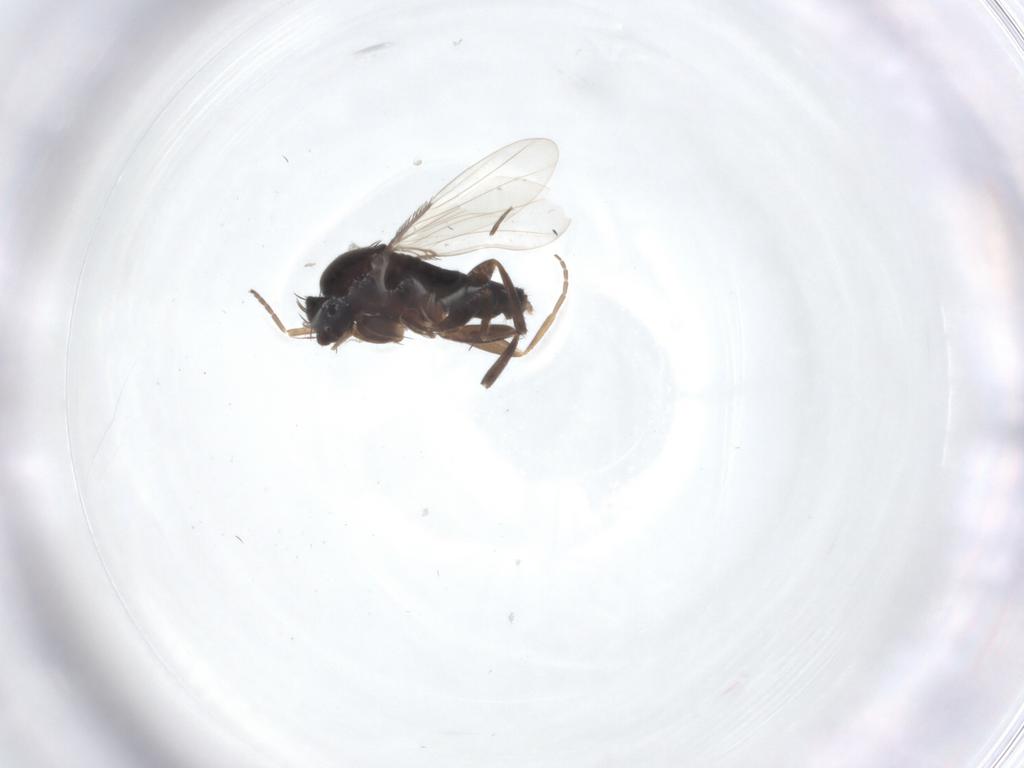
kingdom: Animalia
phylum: Arthropoda
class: Insecta
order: Diptera
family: Phoridae
